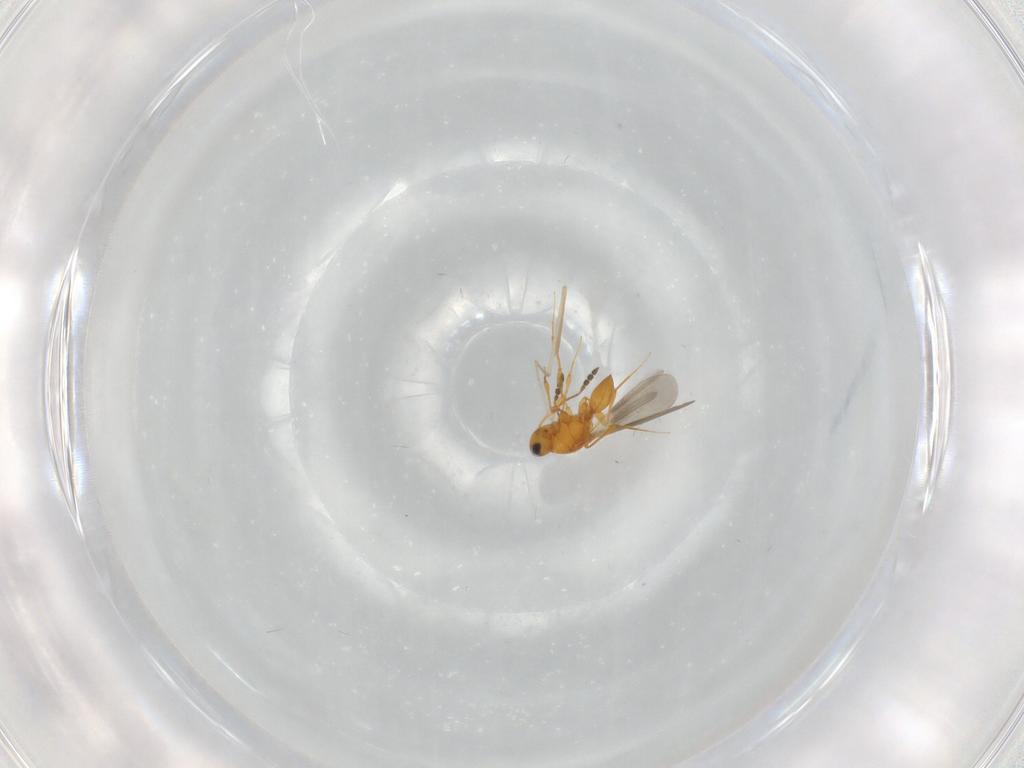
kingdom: Animalia
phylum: Arthropoda
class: Insecta
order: Hymenoptera
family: Platygastridae
